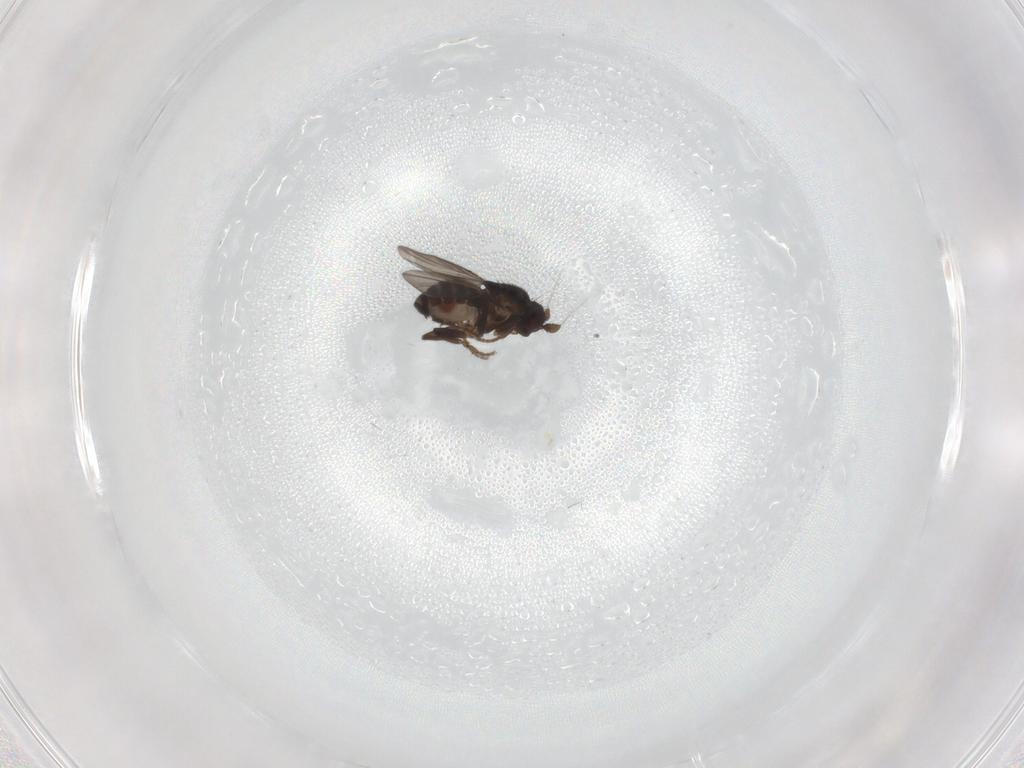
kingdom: Animalia
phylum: Arthropoda
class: Insecta
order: Diptera
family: Sphaeroceridae
